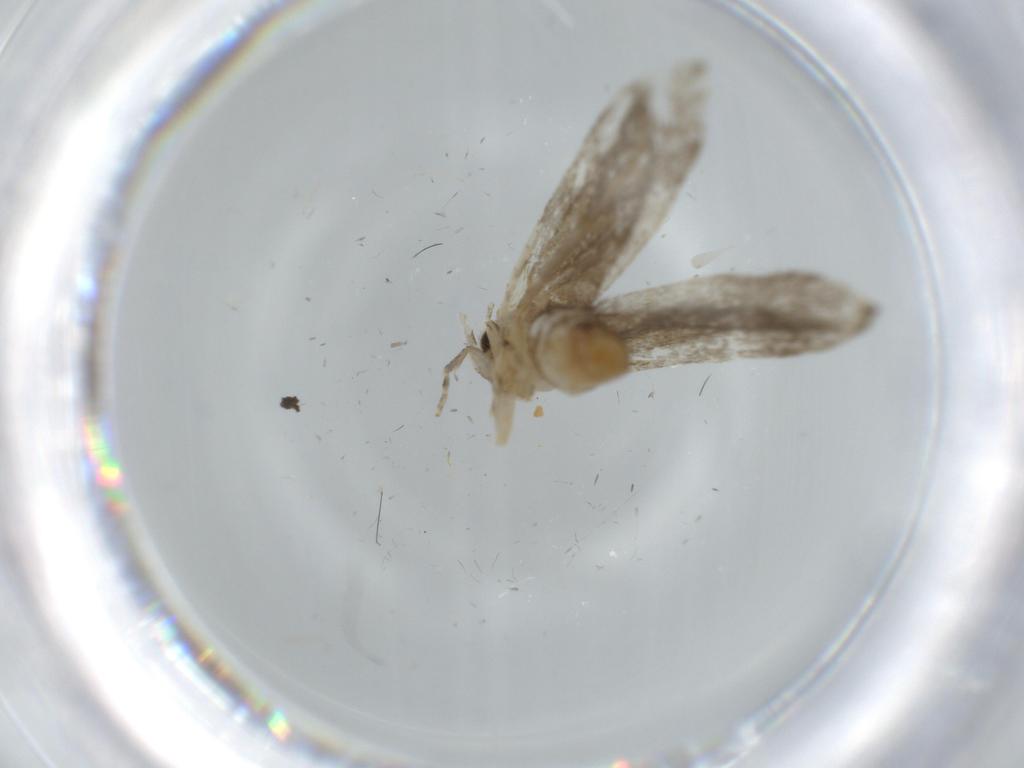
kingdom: Animalia
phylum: Arthropoda
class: Insecta
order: Lepidoptera
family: Tineidae
